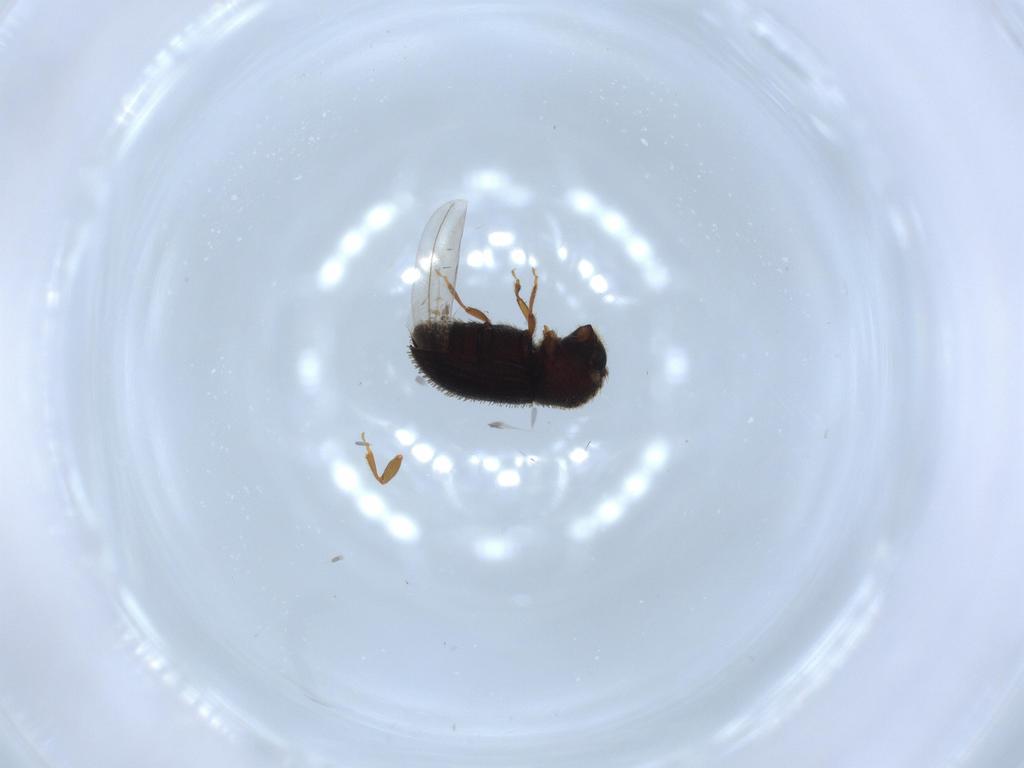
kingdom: Animalia
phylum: Arthropoda
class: Insecta
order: Coleoptera
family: Curculionidae
